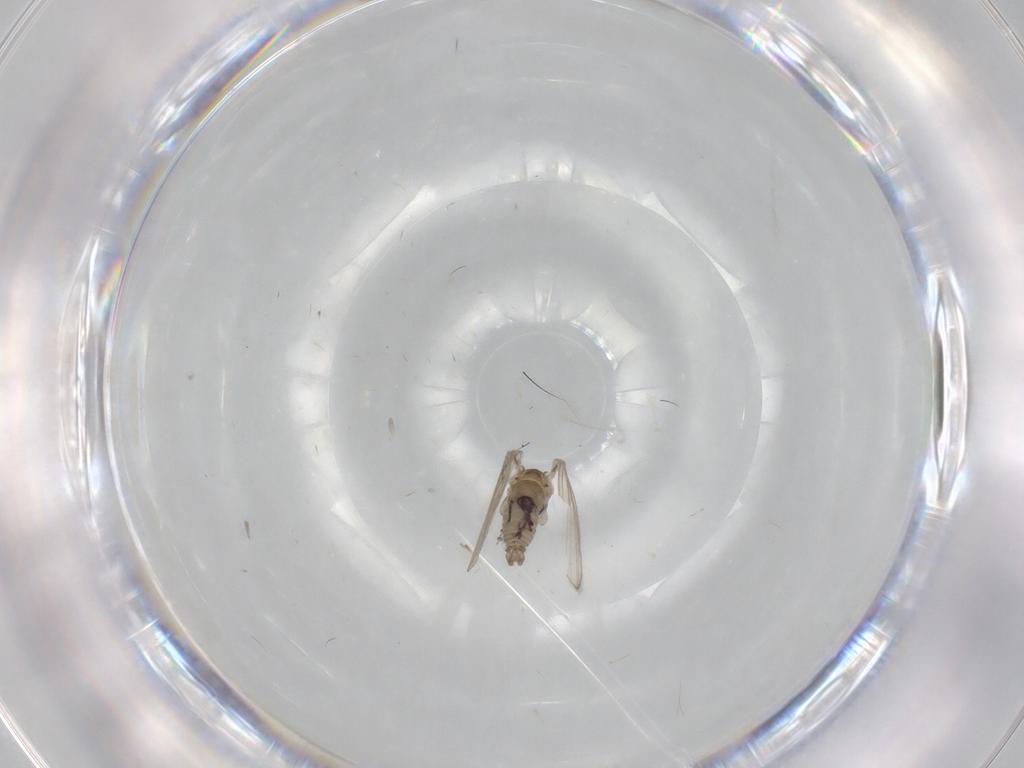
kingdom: Animalia
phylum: Arthropoda
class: Insecta
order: Diptera
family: Psychodidae
